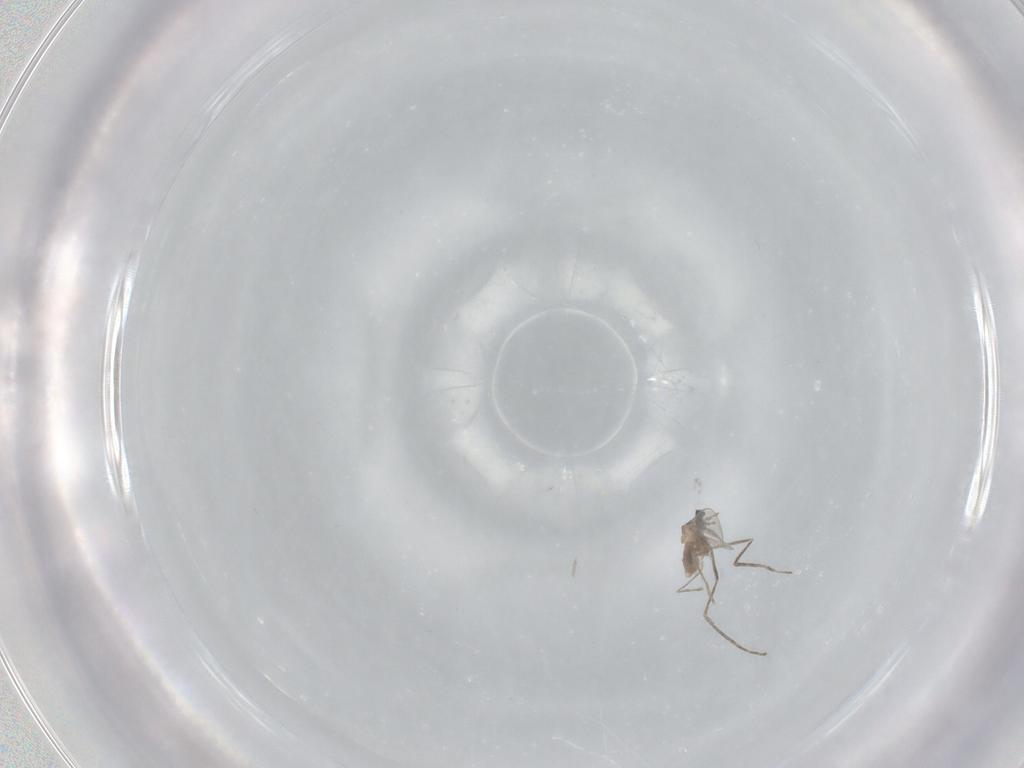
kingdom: Animalia
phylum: Arthropoda
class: Insecta
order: Diptera
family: Cecidomyiidae
